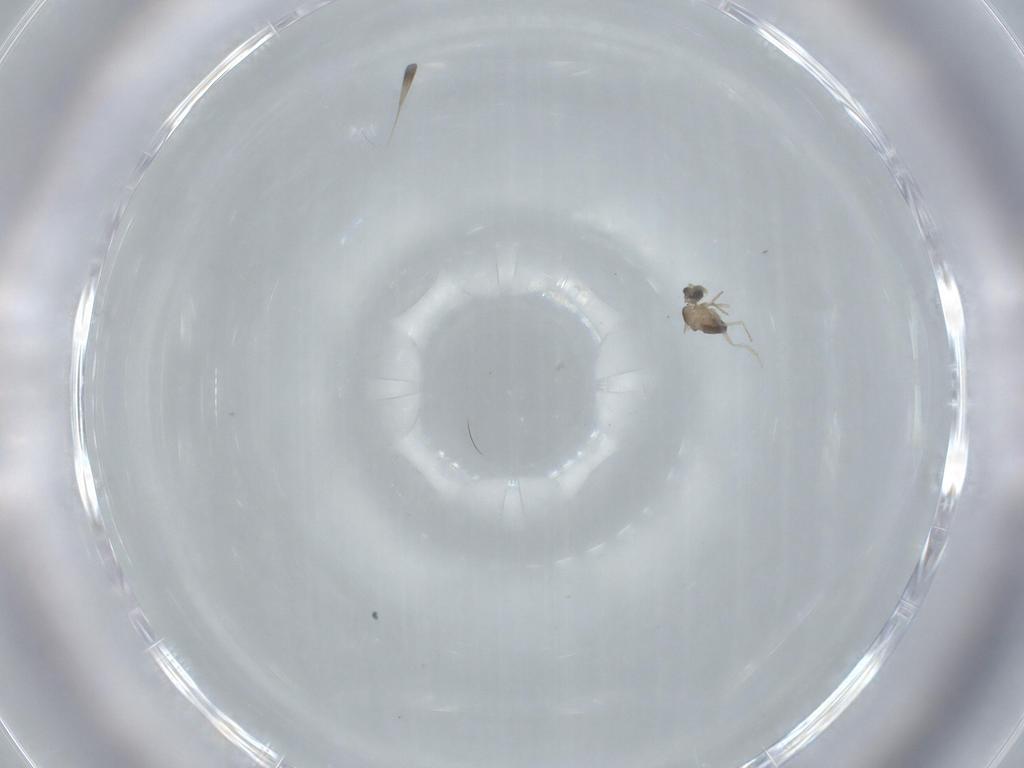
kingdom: Animalia
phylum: Arthropoda
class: Insecta
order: Diptera
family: Cecidomyiidae
